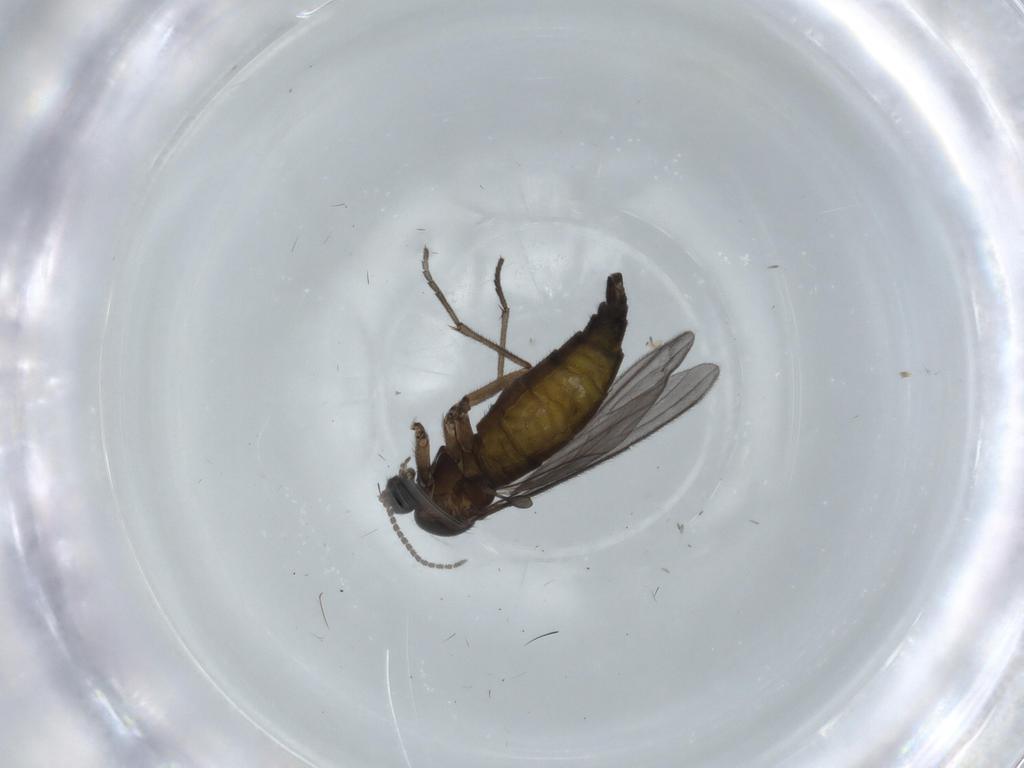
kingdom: Animalia
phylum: Arthropoda
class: Insecta
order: Diptera
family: Sciaridae
